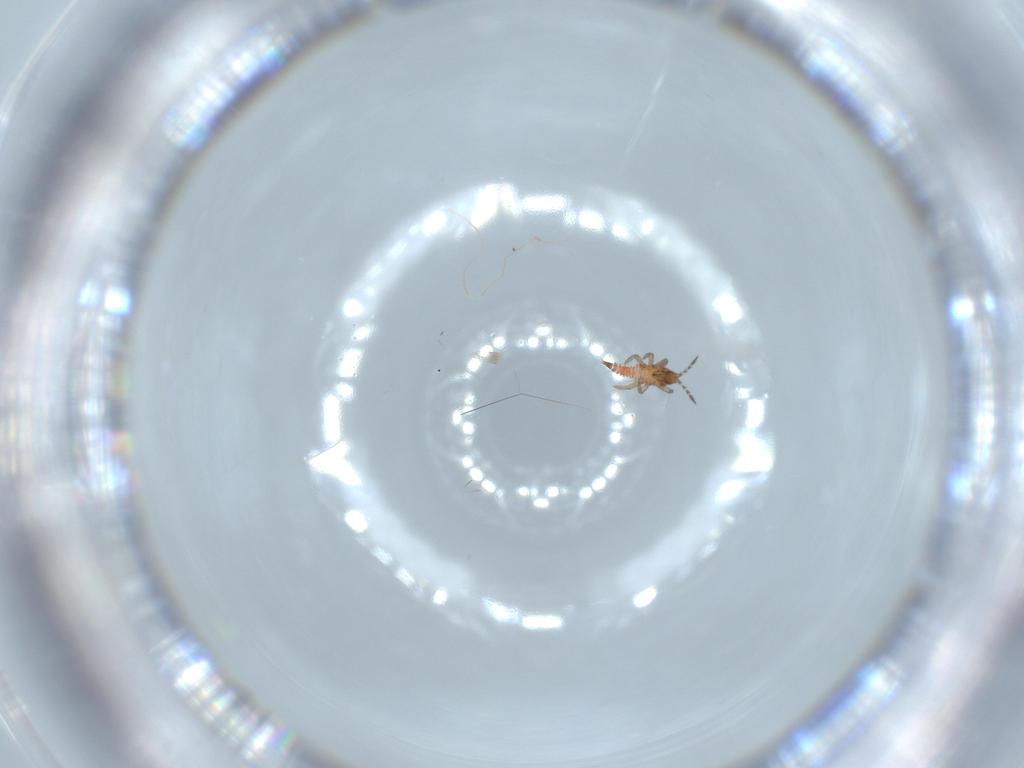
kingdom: Animalia
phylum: Arthropoda
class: Insecta
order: Thysanoptera
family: Phlaeothripidae
